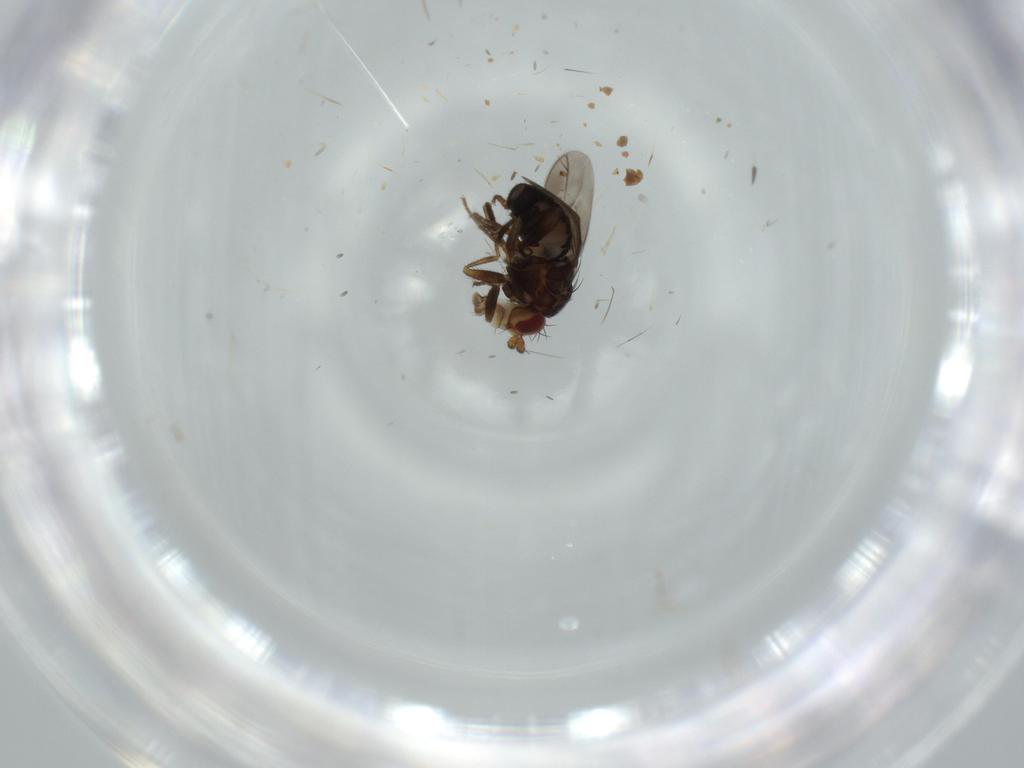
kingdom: Animalia
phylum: Arthropoda
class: Insecta
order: Diptera
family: Sphaeroceridae
